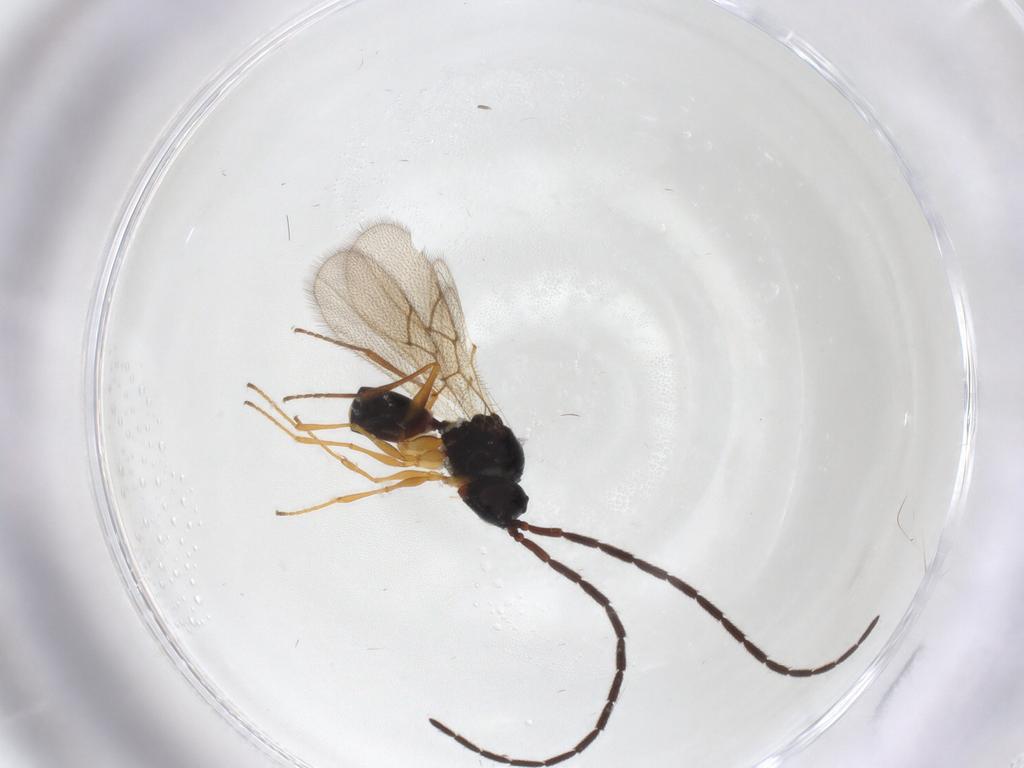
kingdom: Animalia
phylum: Arthropoda
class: Insecta
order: Hymenoptera
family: Figitidae
